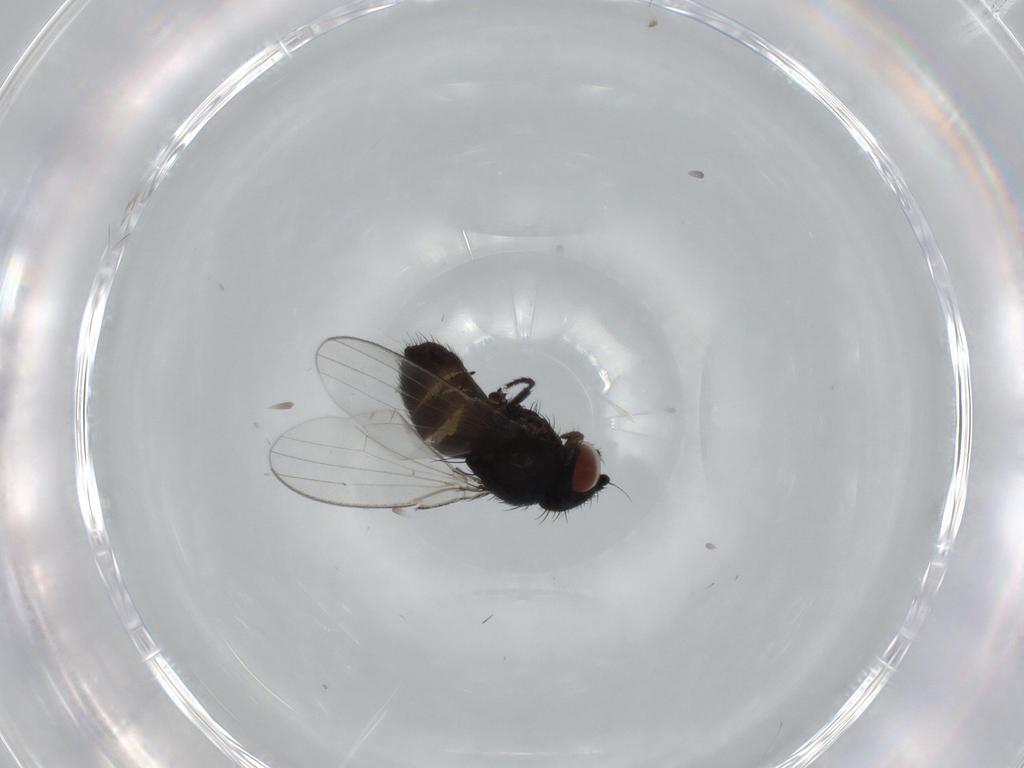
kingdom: Animalia
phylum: Arthropoda
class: Insecta
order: Diptera
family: Milichiidae
